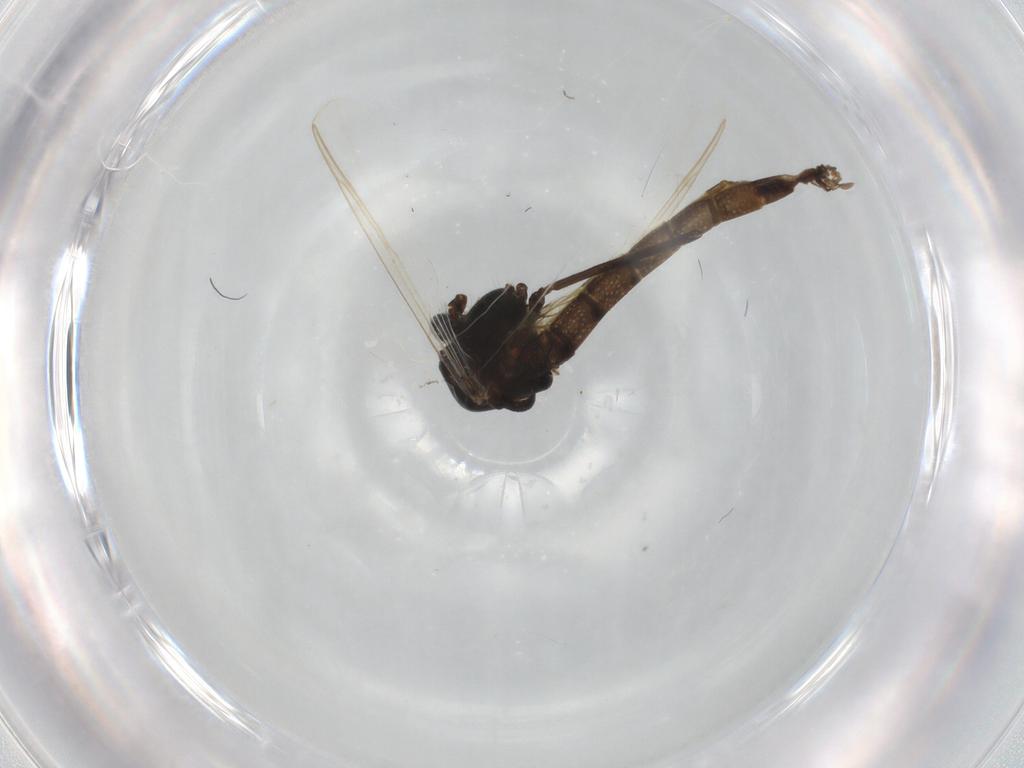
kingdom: Animalia
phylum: Arthropoda
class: Insecta
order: Diptera
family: Chironomidae
